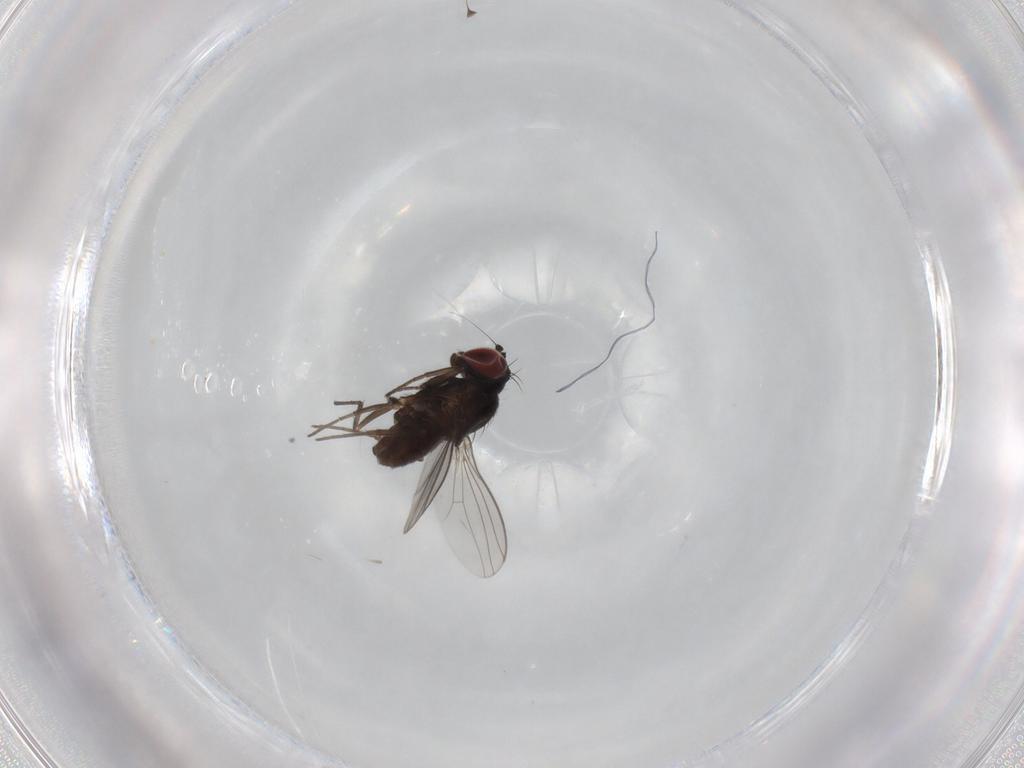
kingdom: Animalia
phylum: Arthropoda
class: Insecta
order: Diptera
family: Dolichopodidae
